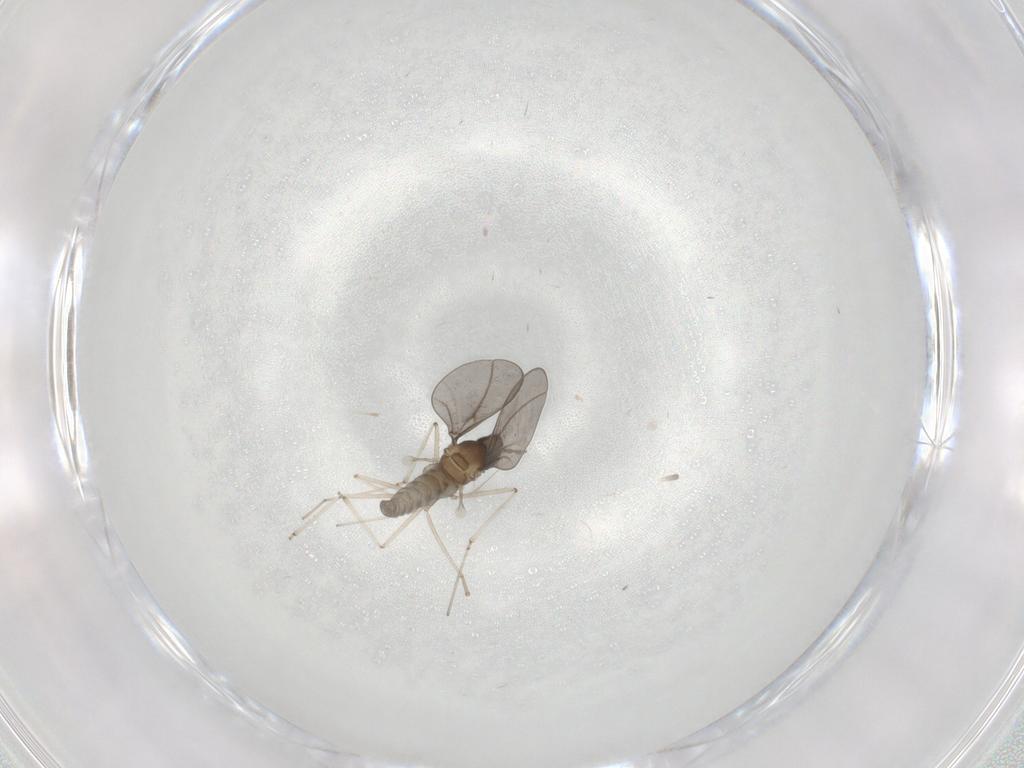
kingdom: Animalia
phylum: Arthropoda
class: Insecta
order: Diptera
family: Cecidomyiidae
